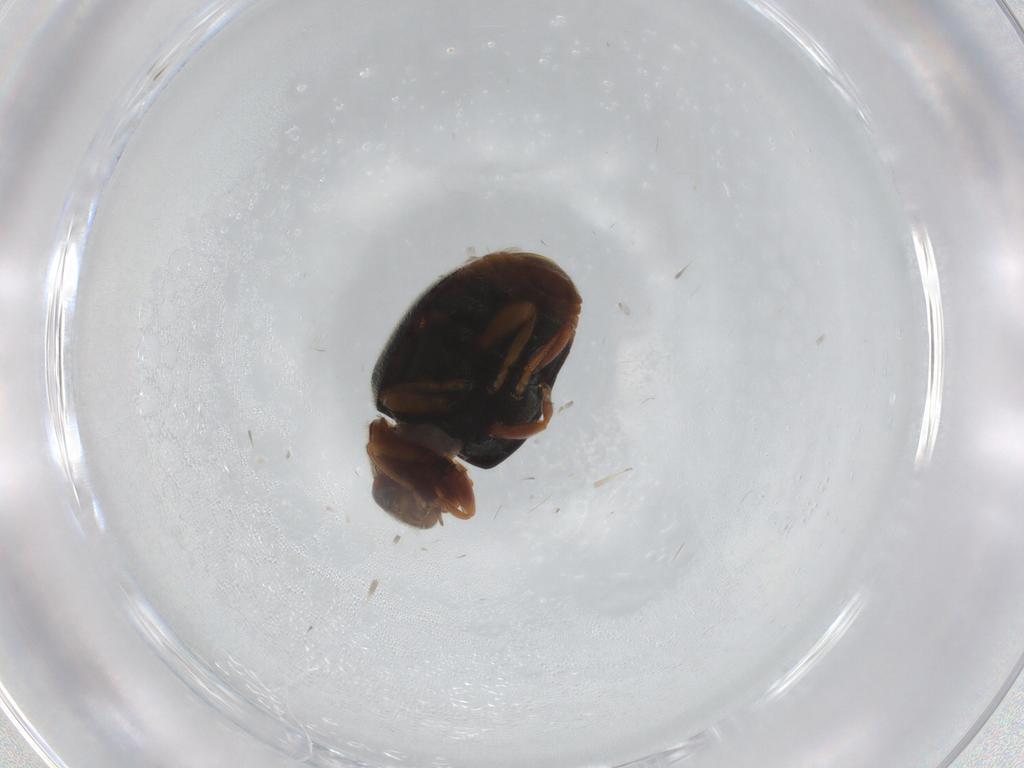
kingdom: Animalia
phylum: Arthropoda
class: Insecta
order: Coleoptera
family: Coccinellidae
